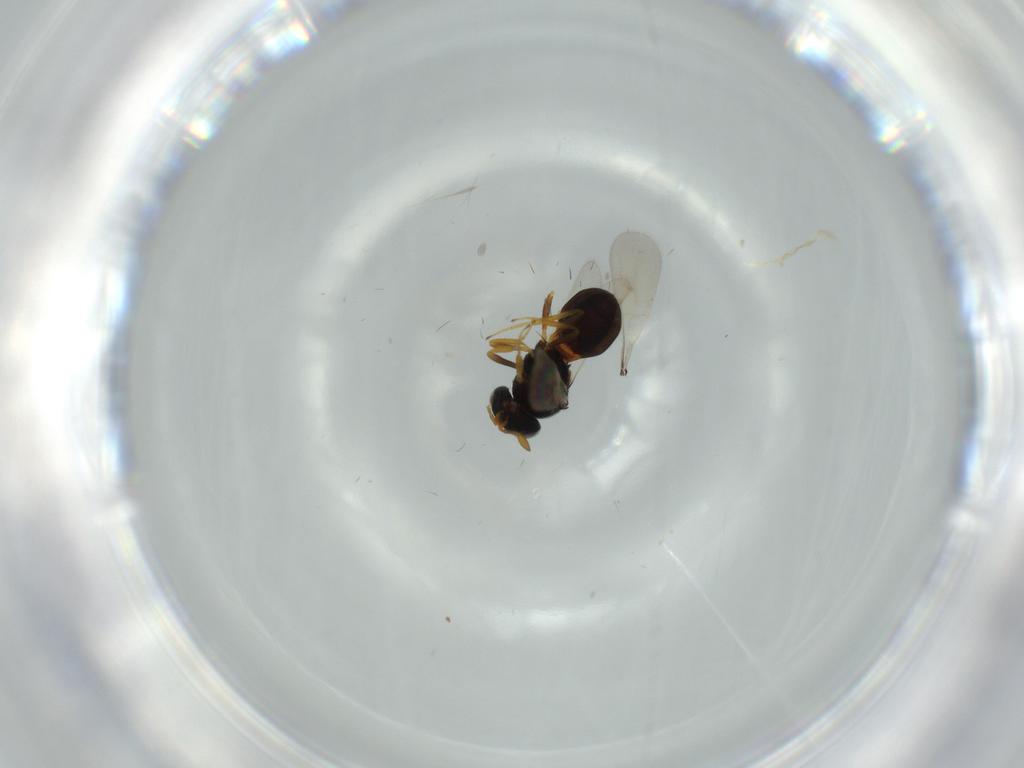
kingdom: Animalia
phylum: Arthropoda
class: Insecta
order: Hymenoptera
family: Scelionidae
